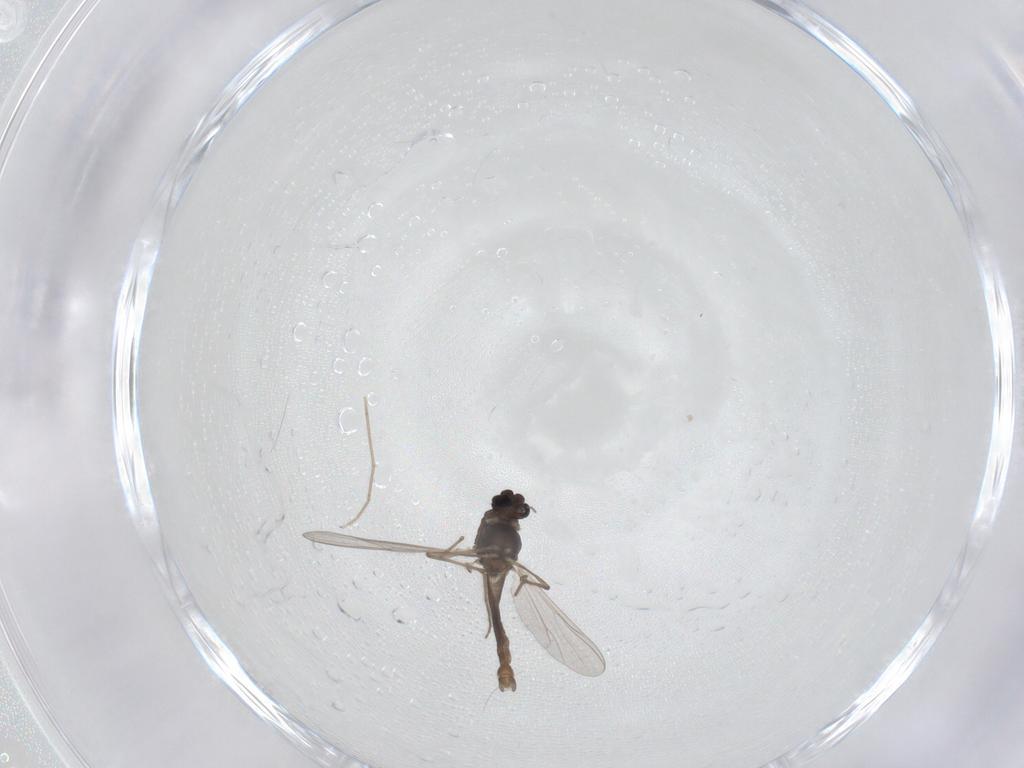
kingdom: Animalia
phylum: Arthropoda
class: Insecta
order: Diptera
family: Chironomidae
